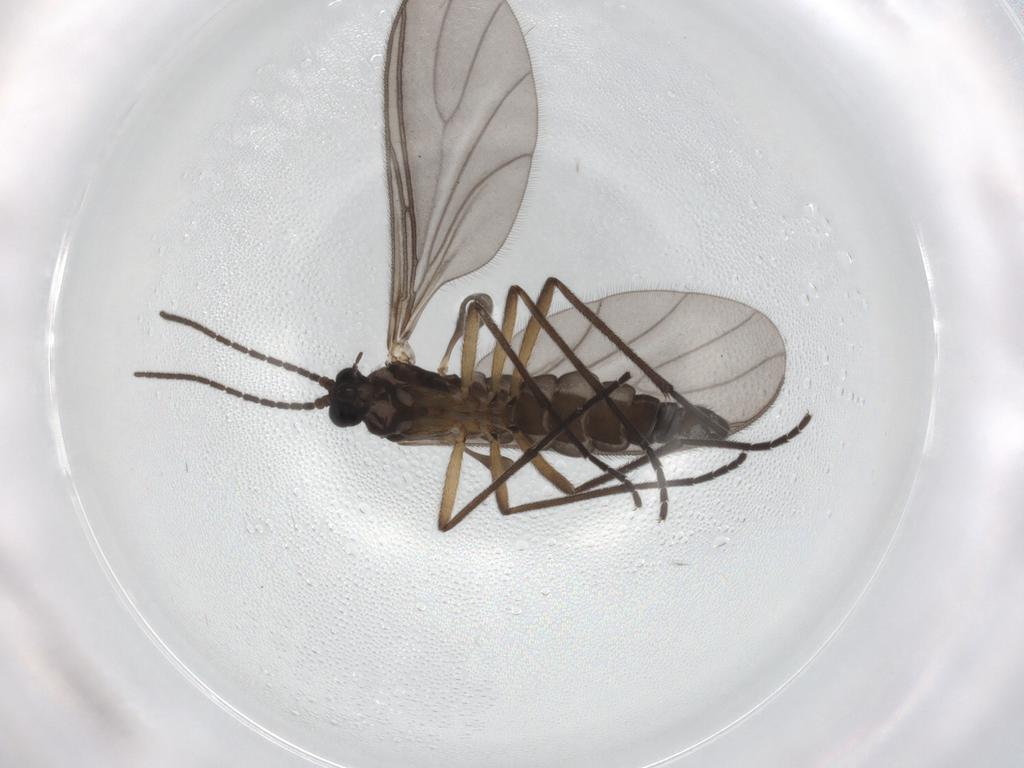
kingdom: Animalia
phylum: Arthropoda
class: Insecta
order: Diptera
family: Sciaridae
